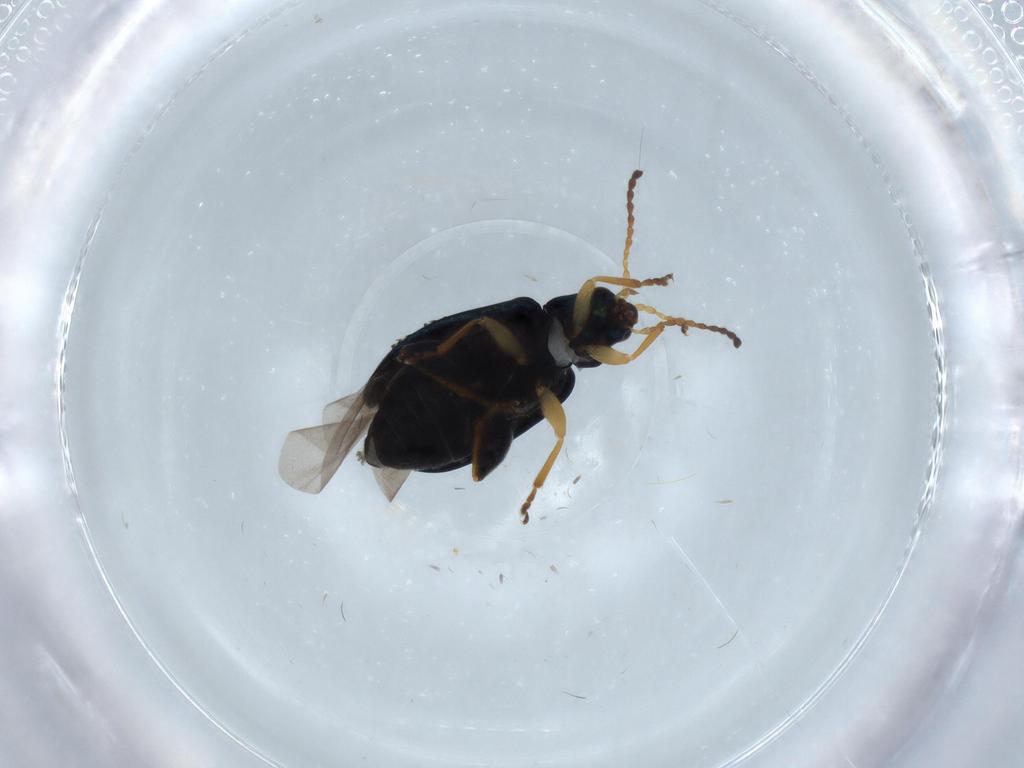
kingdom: Animalia
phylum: Arthropoda
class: Insecta
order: Coleoptera
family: Chrysomelidae
